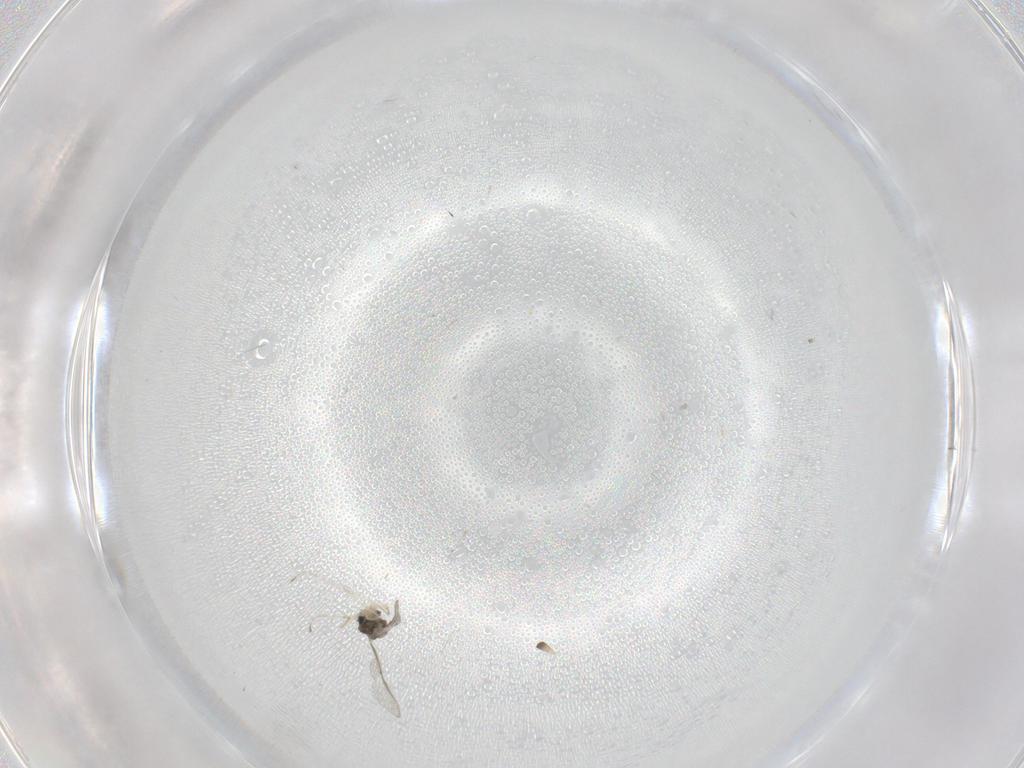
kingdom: Animalia
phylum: Arthropoda
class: Insecta
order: Diptera
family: Cecidomyiidae
